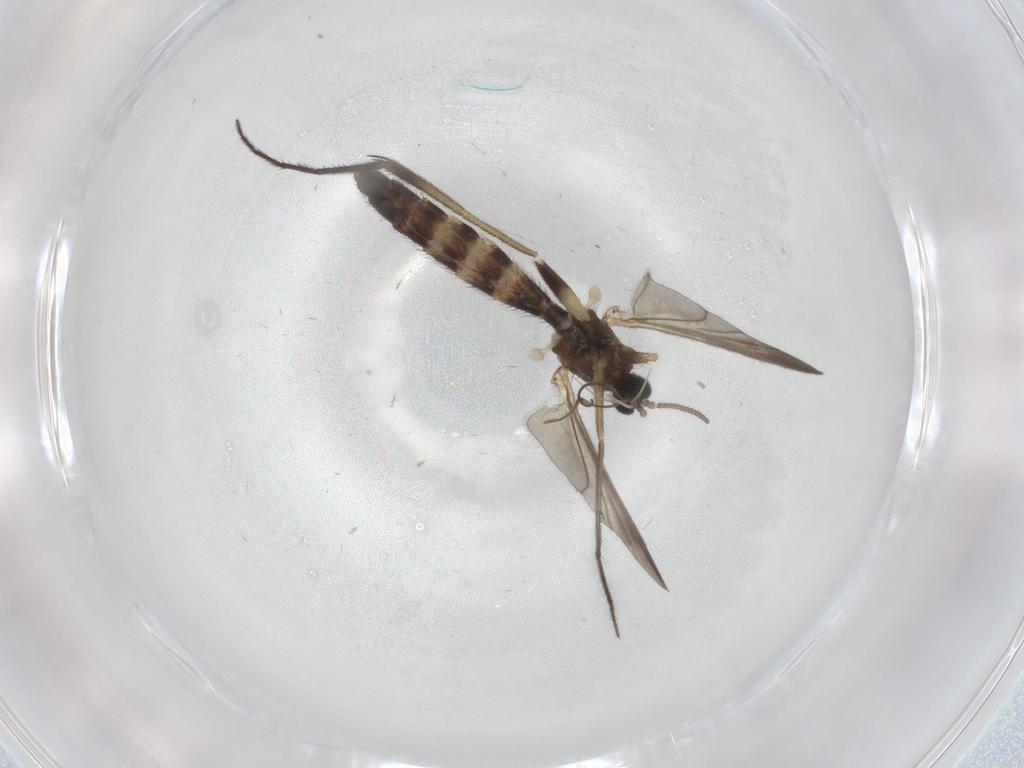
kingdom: Animalia
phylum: Arthropoda
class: Insecta
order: Diptera
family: Keroplatidae
